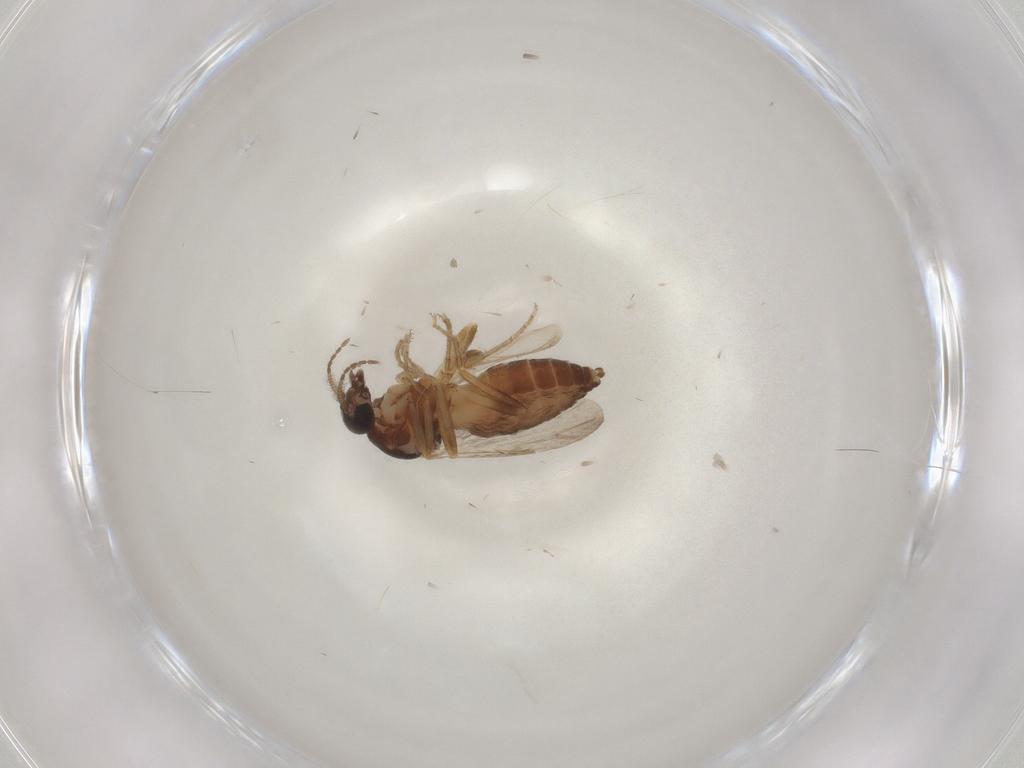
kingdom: Animalia
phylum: Arthropoda
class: Insecta
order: Diptera
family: Ceratopogonidae
